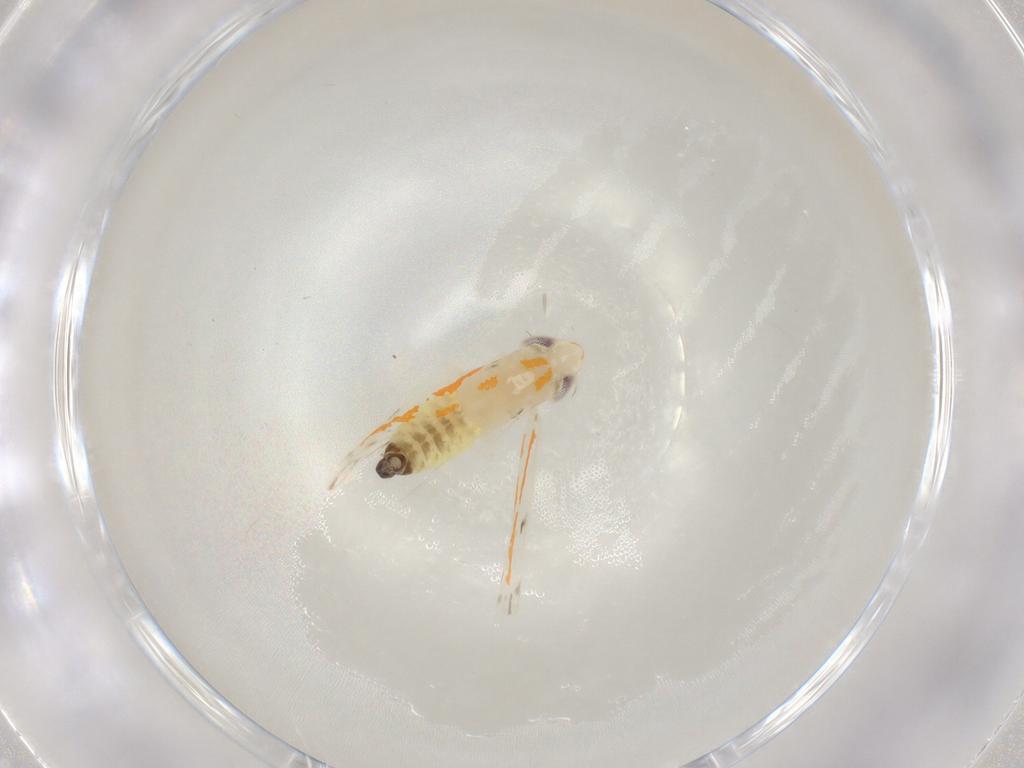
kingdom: Animalia
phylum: Arthropoda
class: Insecta
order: Hemiptera
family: Cicadellidae
